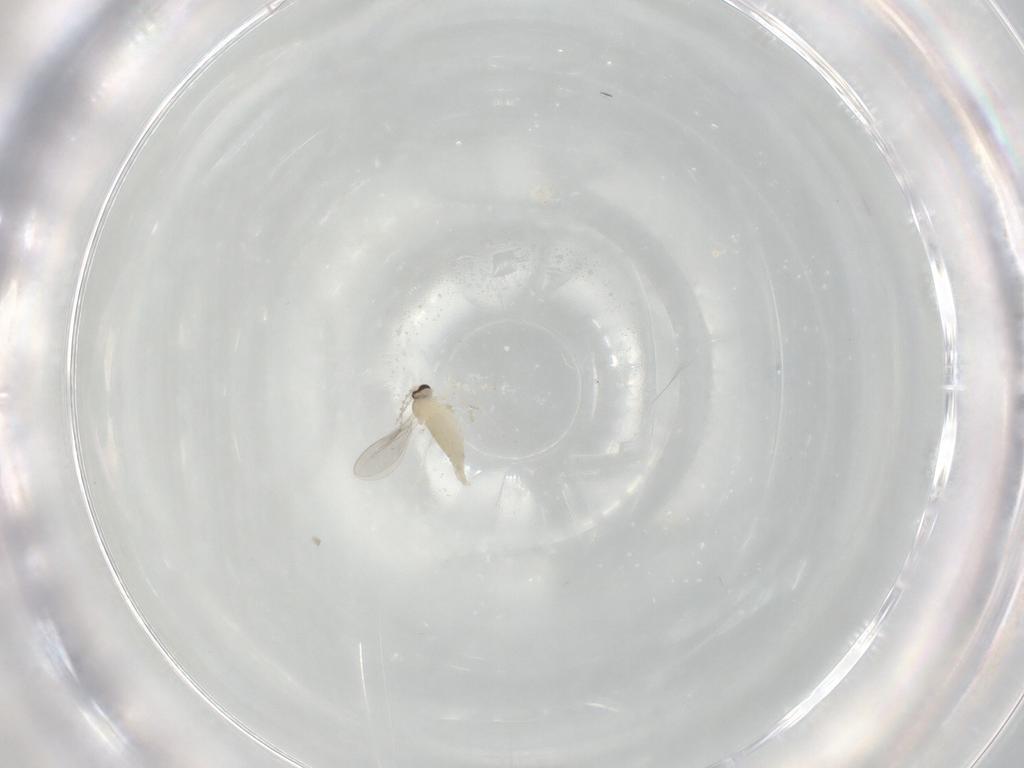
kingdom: Animalia
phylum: Arthropoda
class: Insecta
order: Diptera
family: Cecidomyiidae
